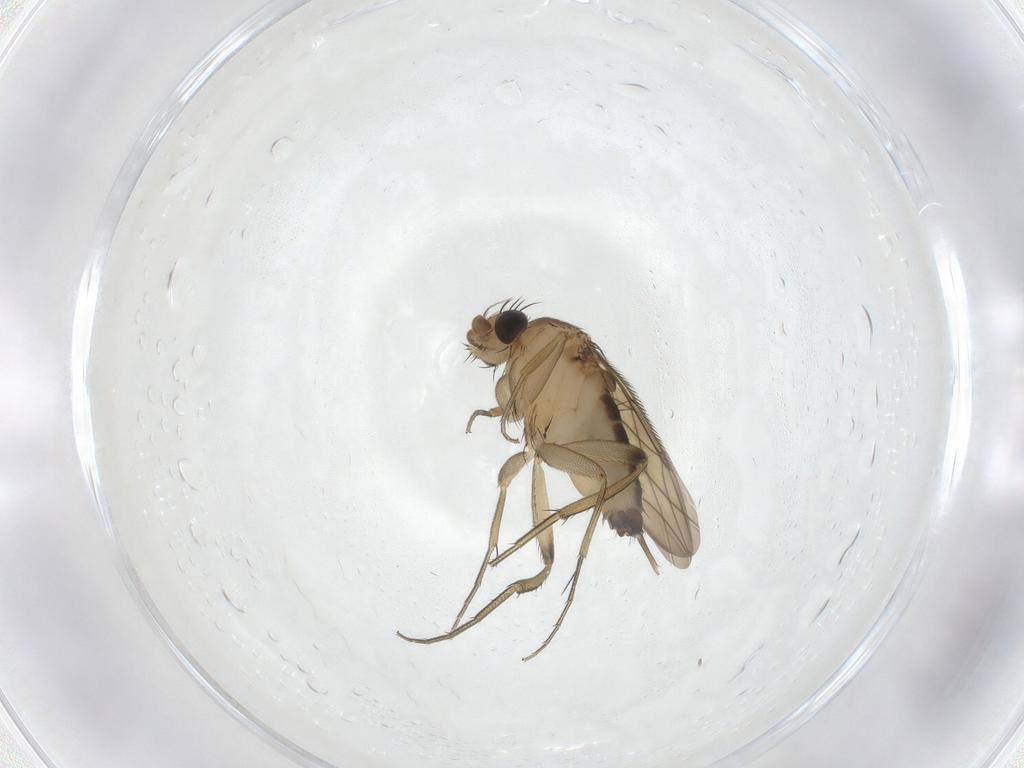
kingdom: Animalia
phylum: Arthropoda
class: Insecta
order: Diptera
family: Phoridae
